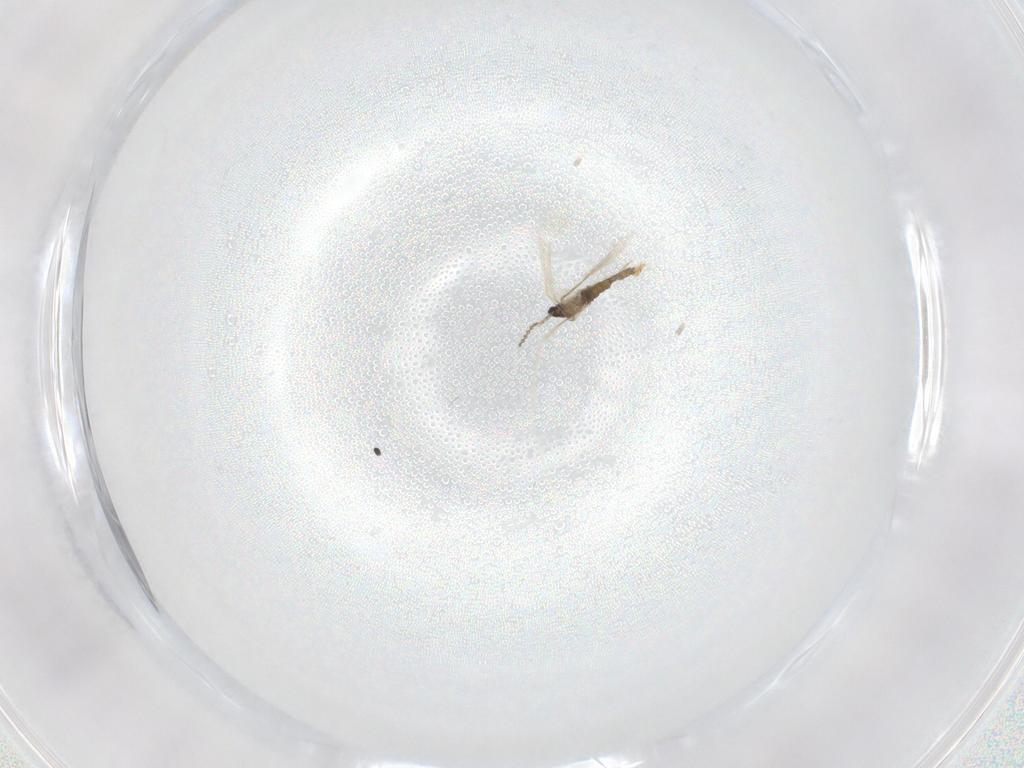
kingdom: Animalia
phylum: Arthropoda
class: Insecta
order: Diptera
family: Cecidomyiidae
